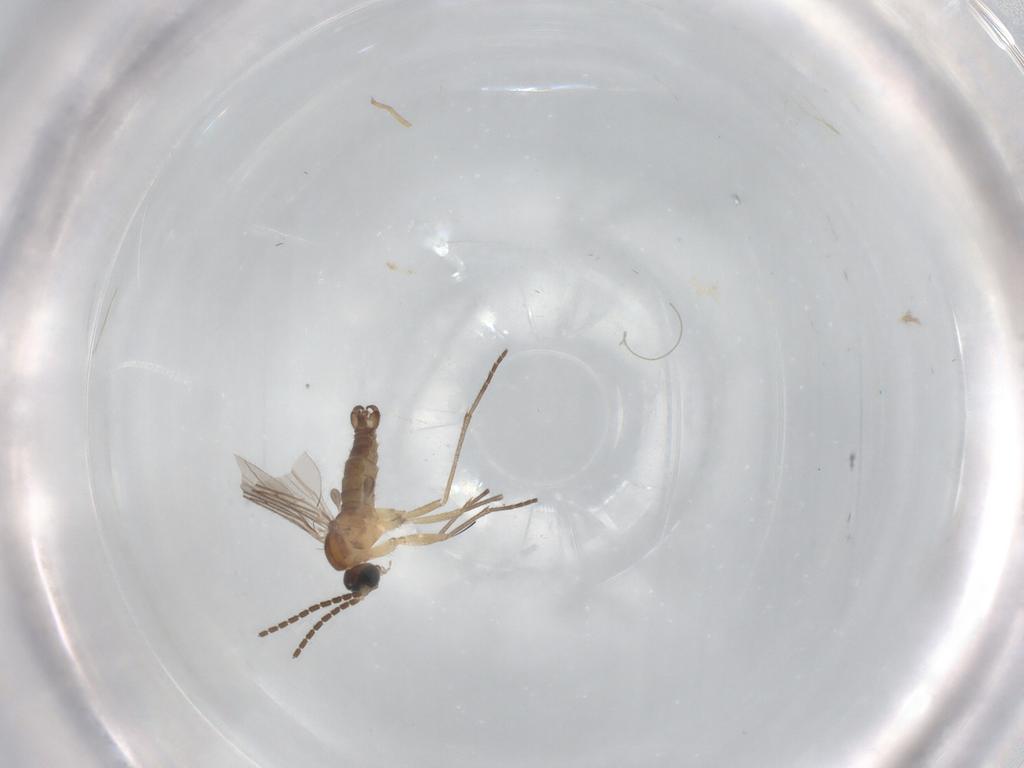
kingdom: Animalia
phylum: Arthropoda
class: Insecta
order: Diptera
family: Sciaridae
